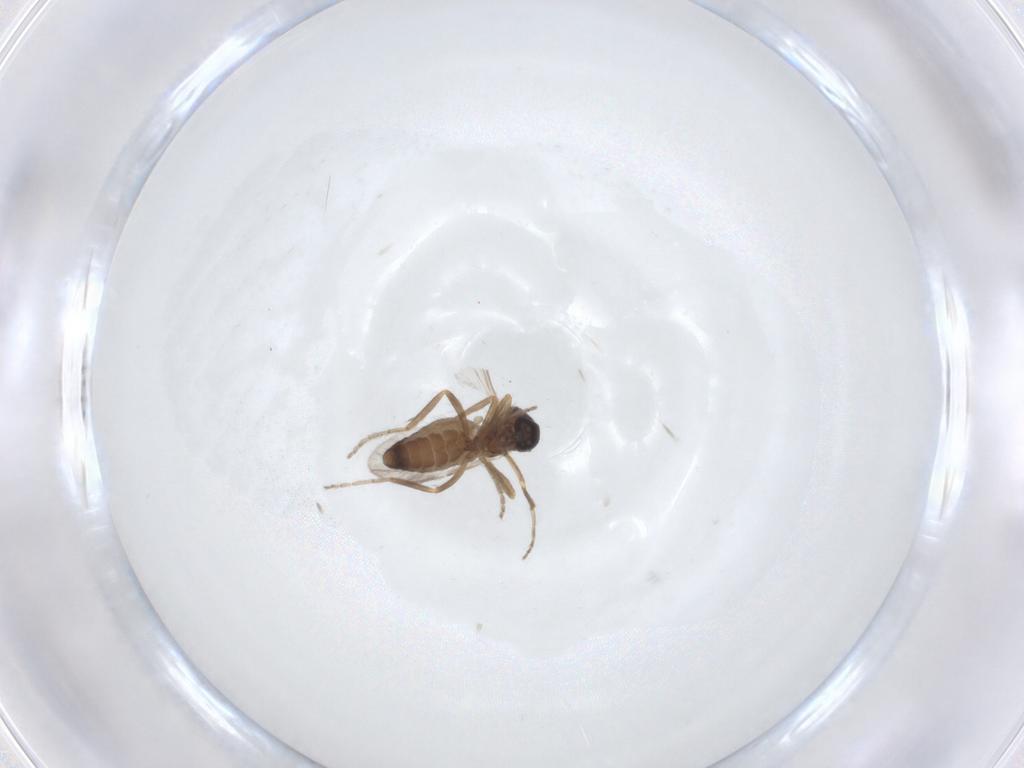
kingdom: Animalia
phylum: Arthropoda
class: Insecta
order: Diptera
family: Ceratopogonidae
